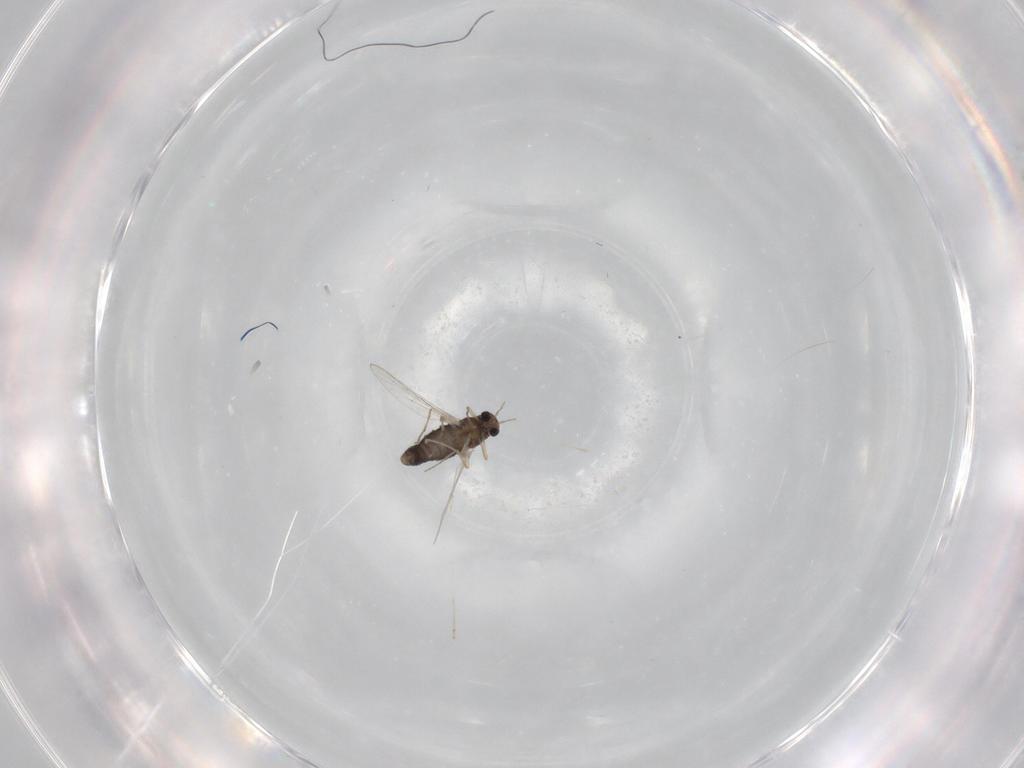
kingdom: Animalia
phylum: Arthropoda
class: Insecta
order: Diptera
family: Chironomidae
